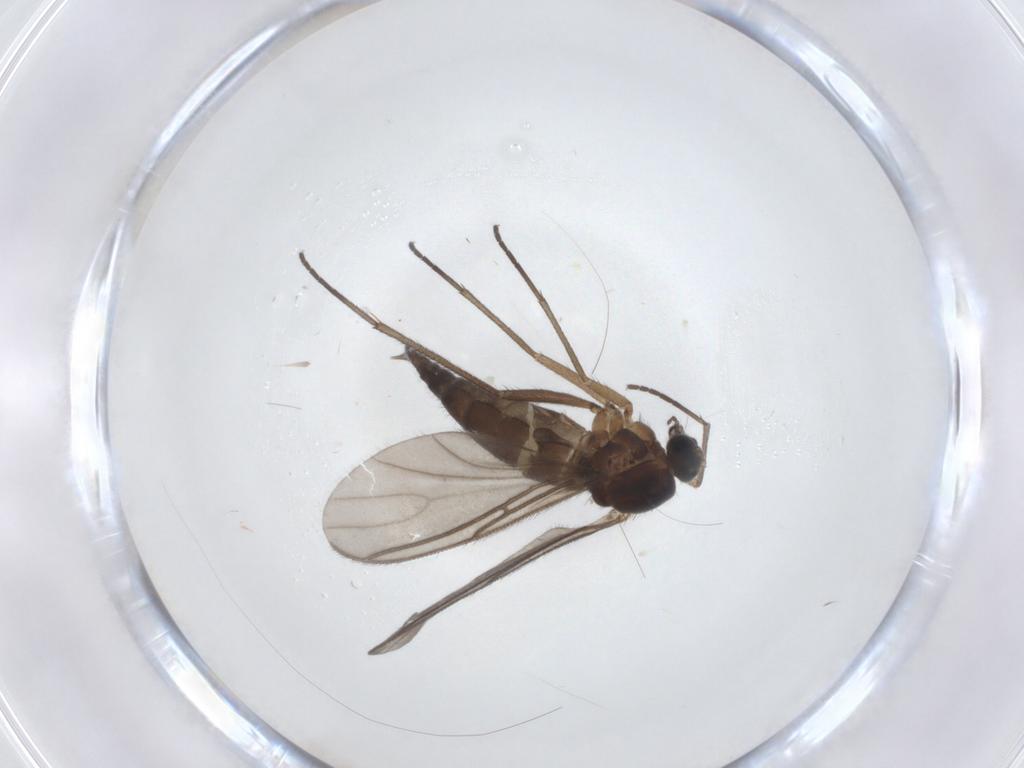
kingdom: Animalia
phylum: Arthropoda
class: Insecta
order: Diptera
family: Sciaridae
